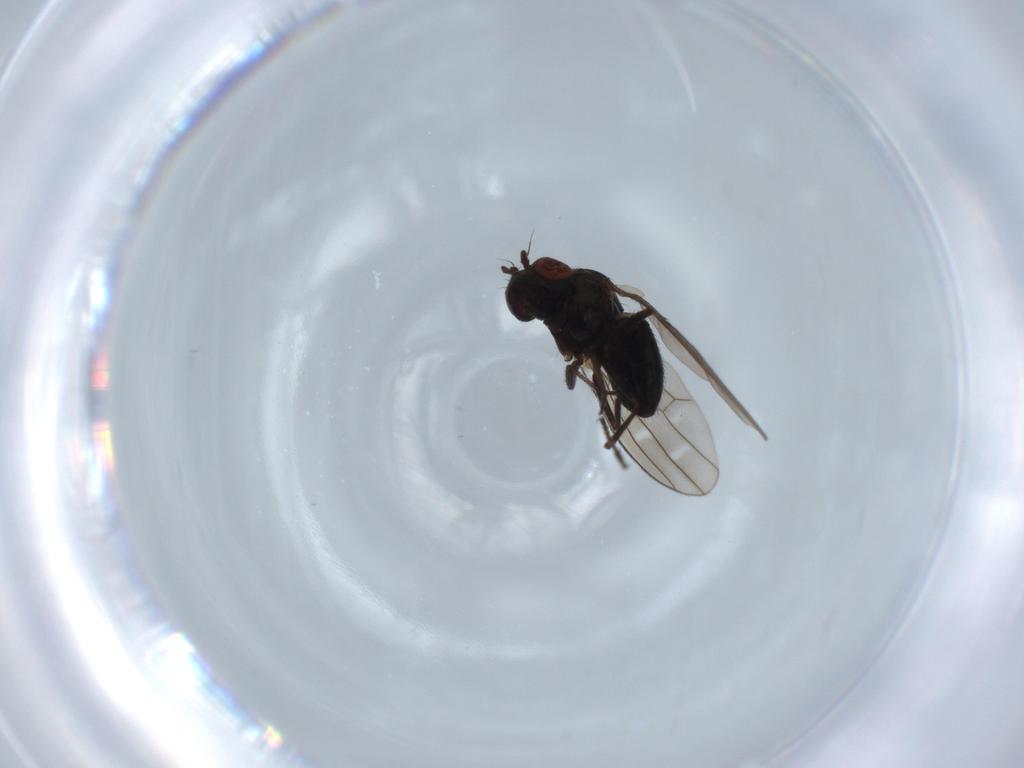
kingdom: Animalia
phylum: Arthropoda
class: Insecta
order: Diptera
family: Ephydridae
